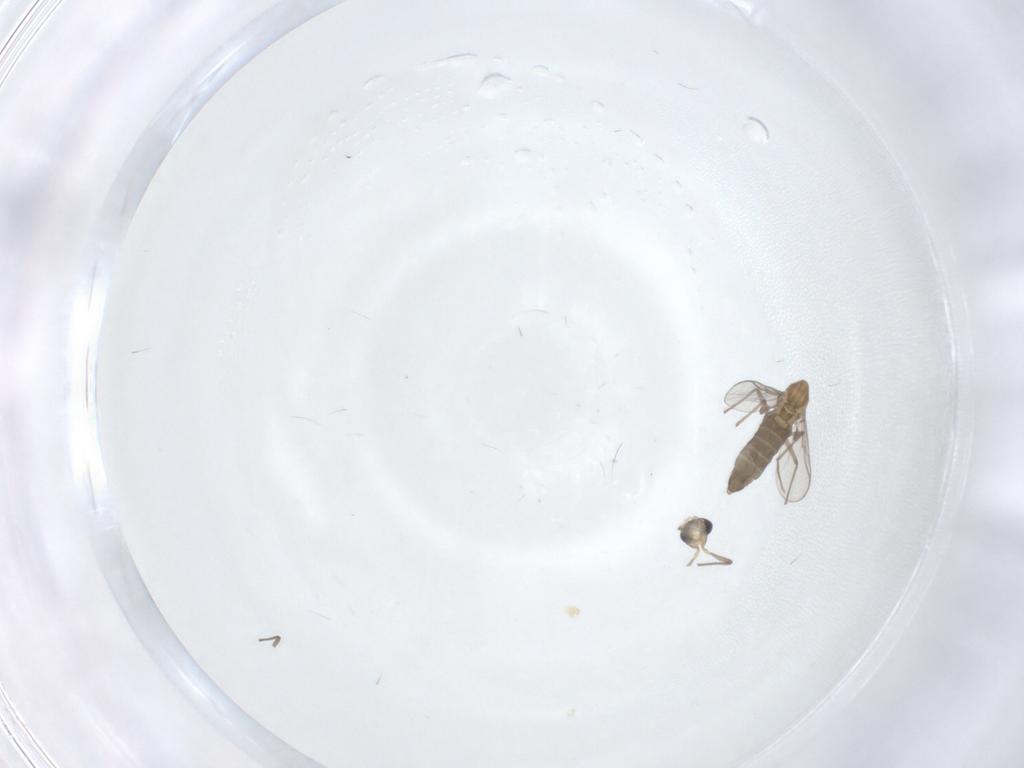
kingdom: Animalia
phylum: Arthropoda
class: Insecta
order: Diptera
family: Chironomidae
